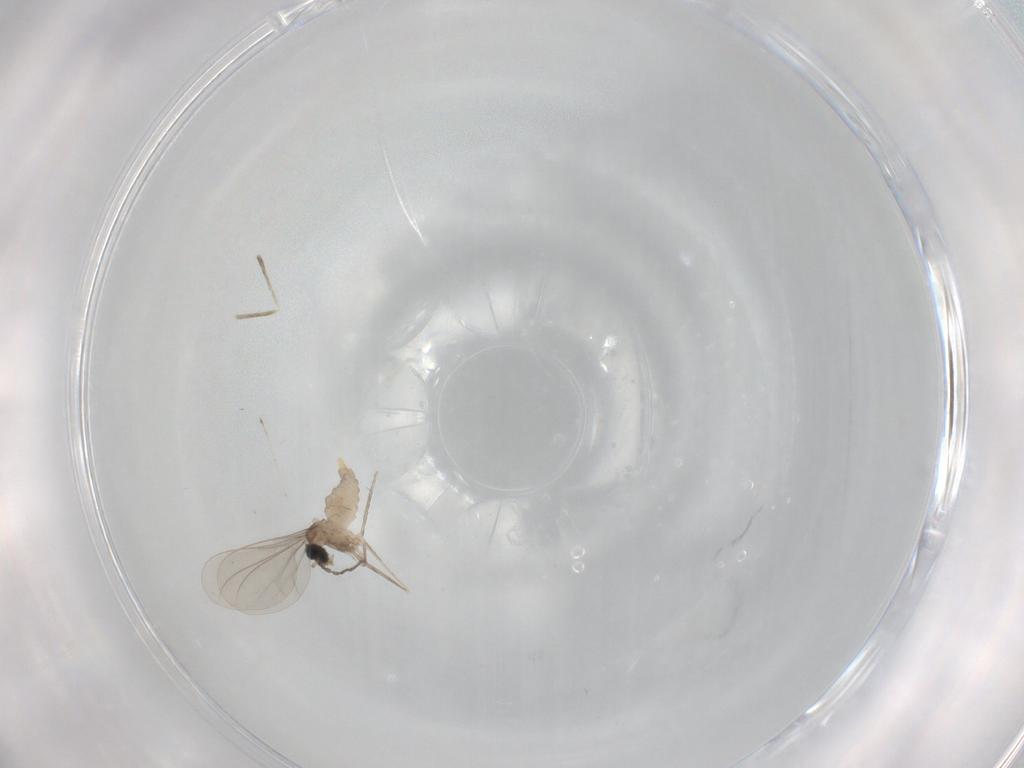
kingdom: Animalia
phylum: Arthropoda
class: Insecta
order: Diptera
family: Cecidomyiidae
